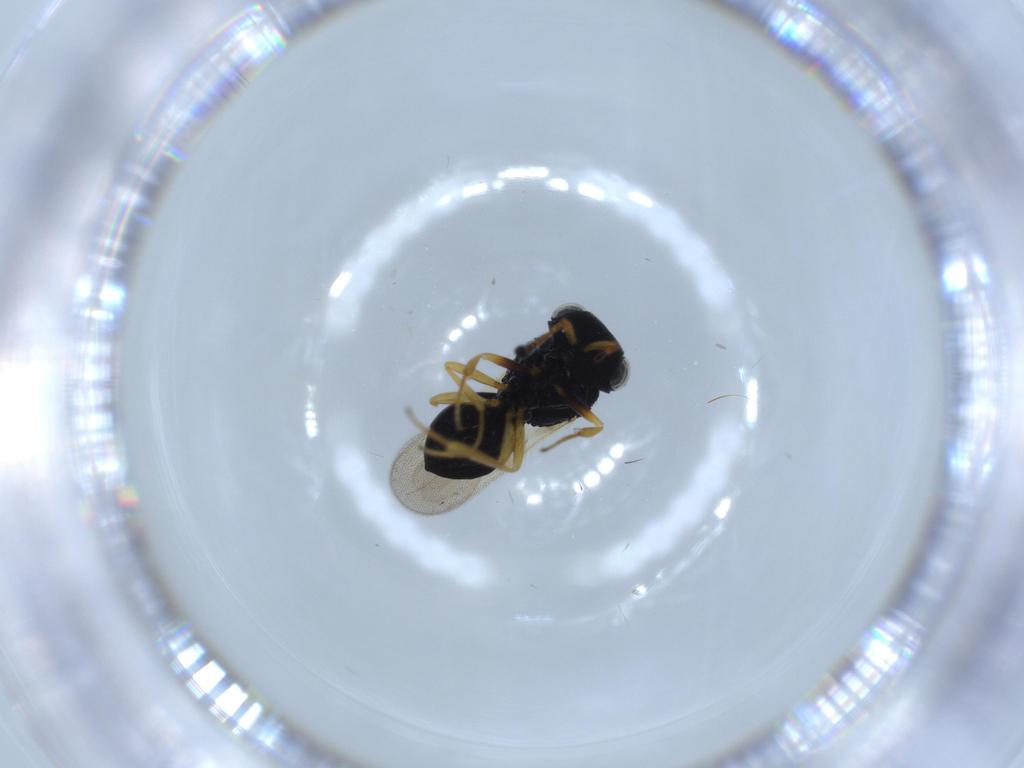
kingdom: Animalia
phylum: Arthropoda
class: Insecta
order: Hymenoptera
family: Scelionidae
